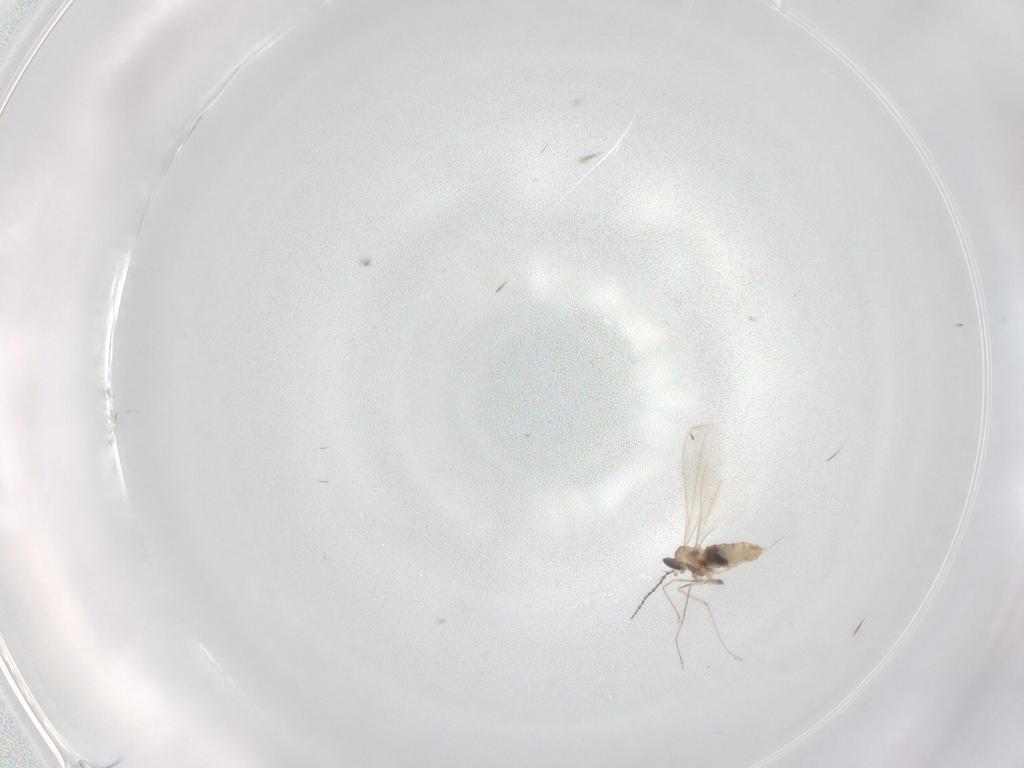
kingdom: Animalia
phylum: Arthropoda
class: Insecta
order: Diptera
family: Cecidomyiidae
